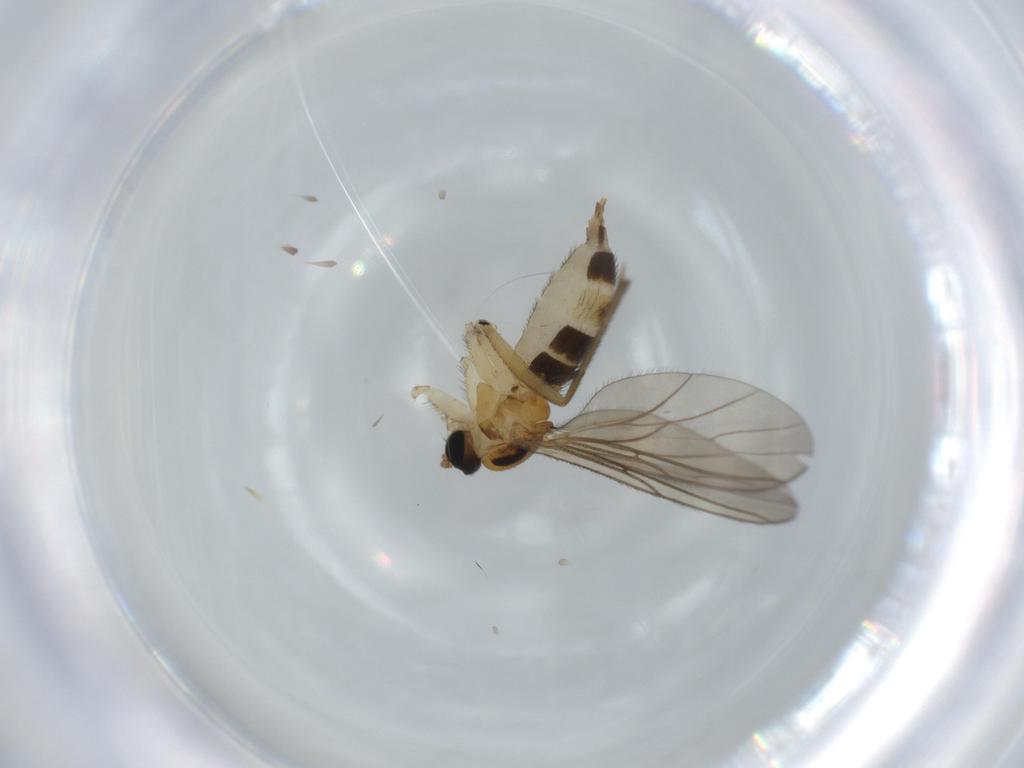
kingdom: Animalia
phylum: Arthropoda
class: Insecta
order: Diptera
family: Sciaridae
